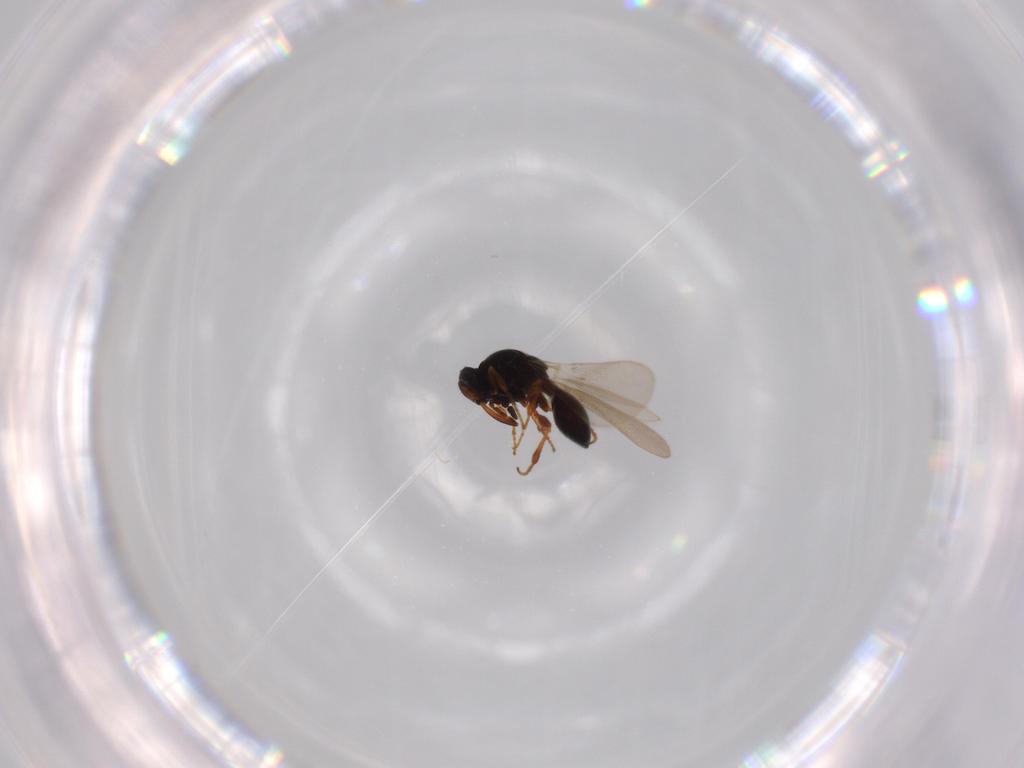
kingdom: Animalia
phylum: Arthropoda
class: Insecta
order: Hymenoptera
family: Platygastridae
